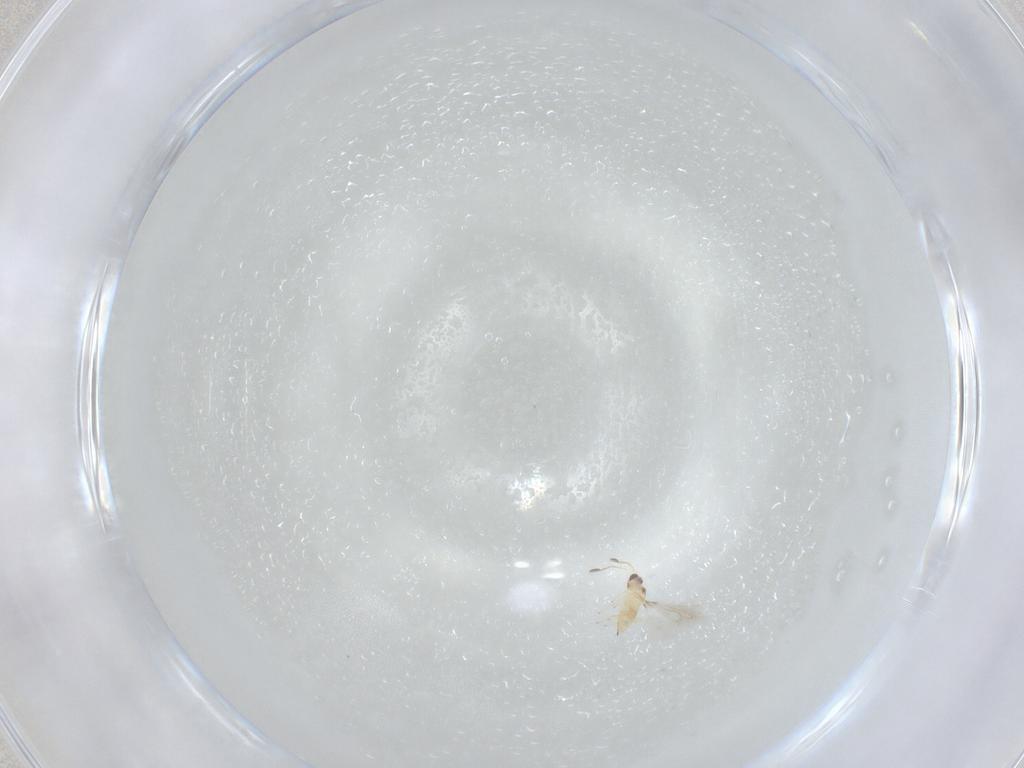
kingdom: Animalia
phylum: Arthropoda
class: Insecta
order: Hymenoptera
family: Mymaridae
